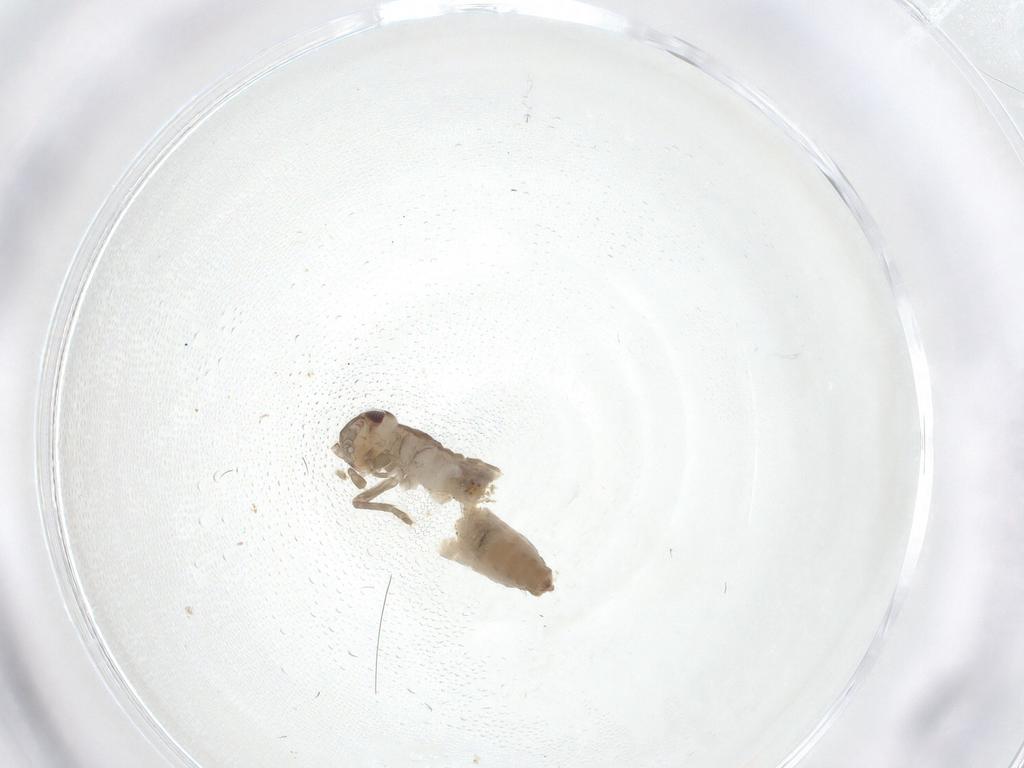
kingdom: Animalia
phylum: Arthropoda
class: Insecta
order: Orthoptera
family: Mogoplistidae
